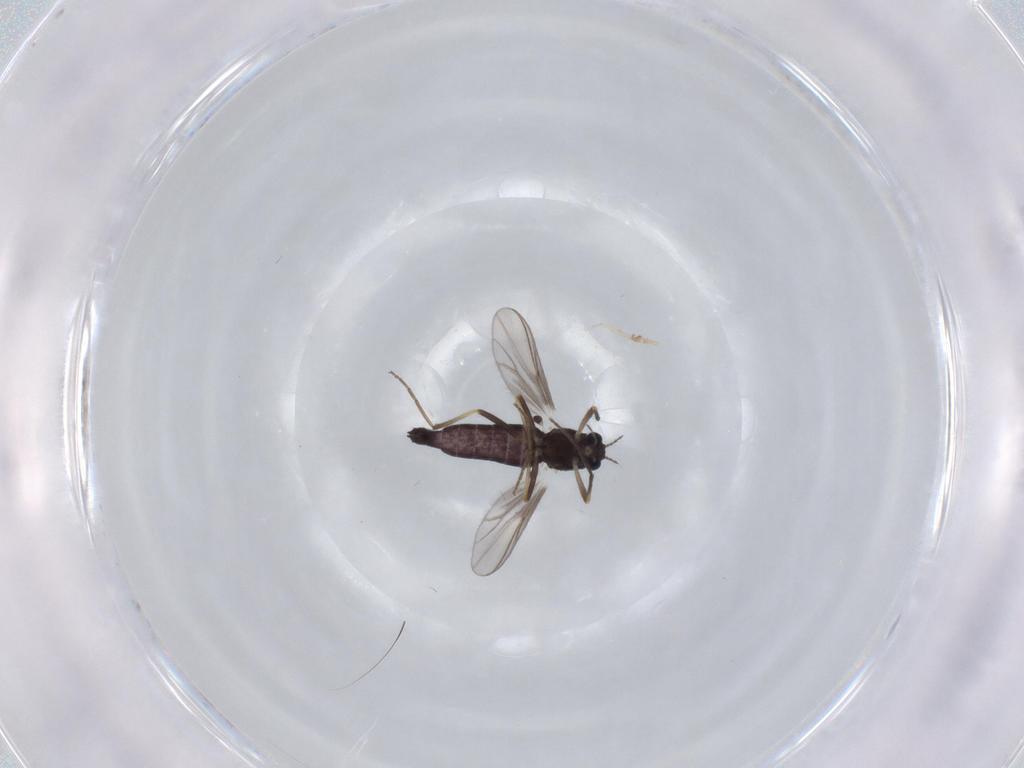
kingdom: Animalia
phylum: Arthropoda
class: Insecta
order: Diptera
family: Chironomidae
